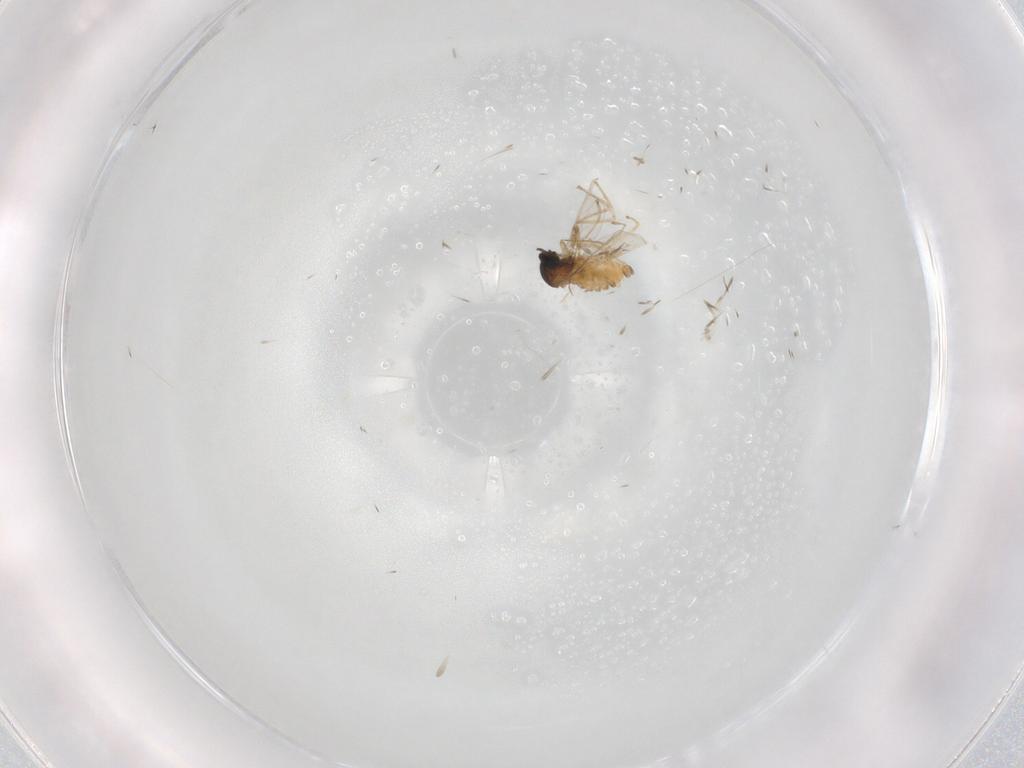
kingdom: Animalia
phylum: Arthropoda
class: Insecta
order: Diptera
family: Cecidomyiidae
